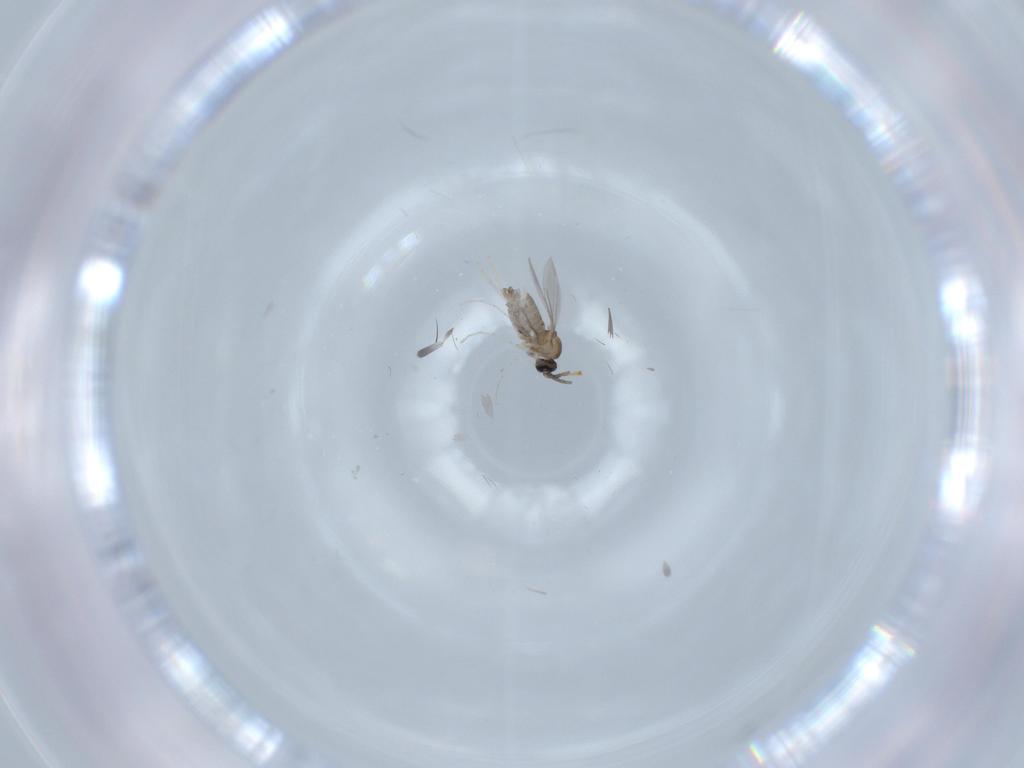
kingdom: Animalia
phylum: Arthropoda
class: Insecta
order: Diptera
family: Cecidomyiidae
